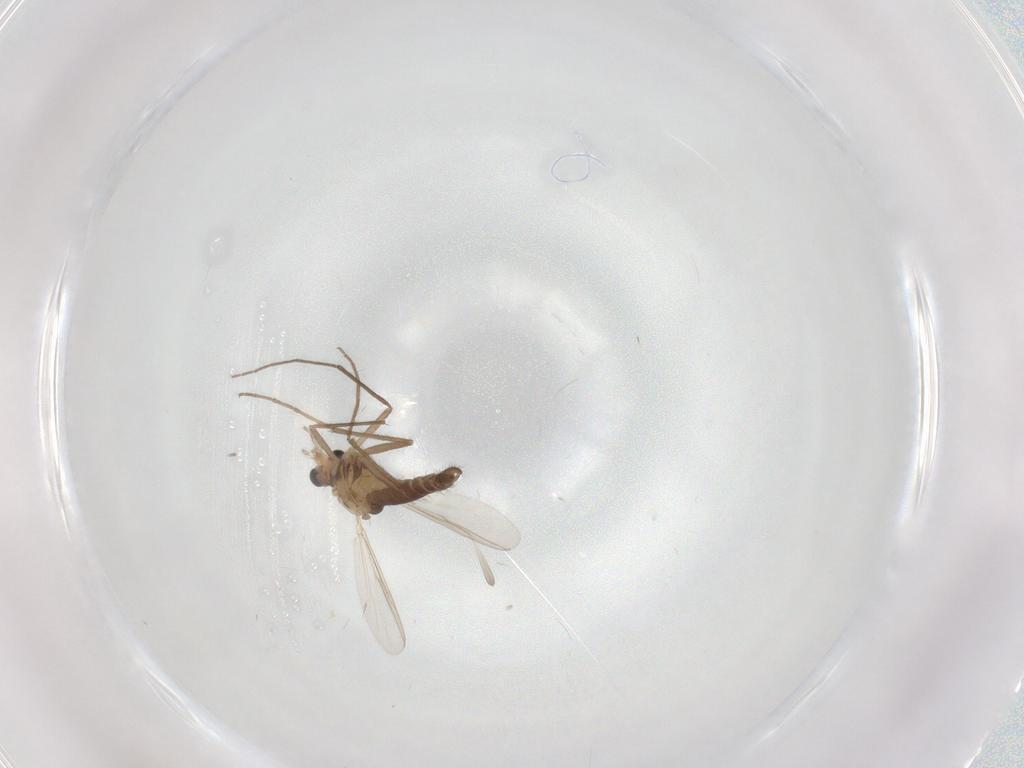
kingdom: Animalia
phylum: Arthropoda
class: Insecta
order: Diptera
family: Chironomidae
